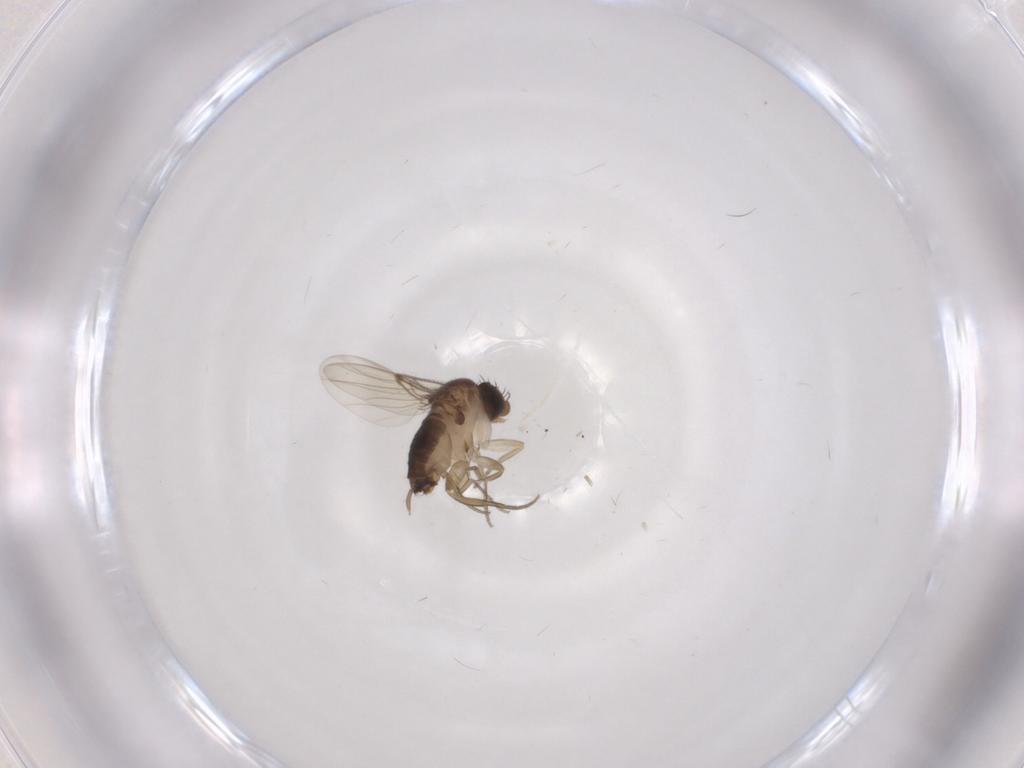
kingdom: Animalia
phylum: Arthropoda
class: Insecta
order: Diptera
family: Phoridae
